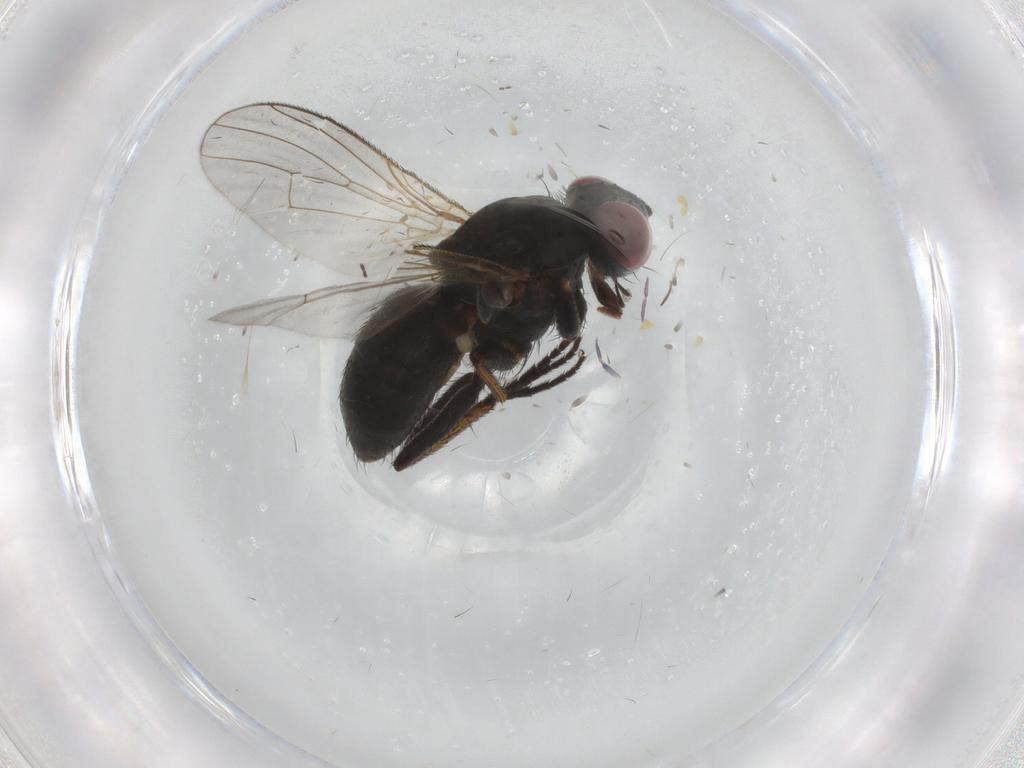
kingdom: Animalia
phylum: Arthropoda
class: Insecta
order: Diptera
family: Muscidae
